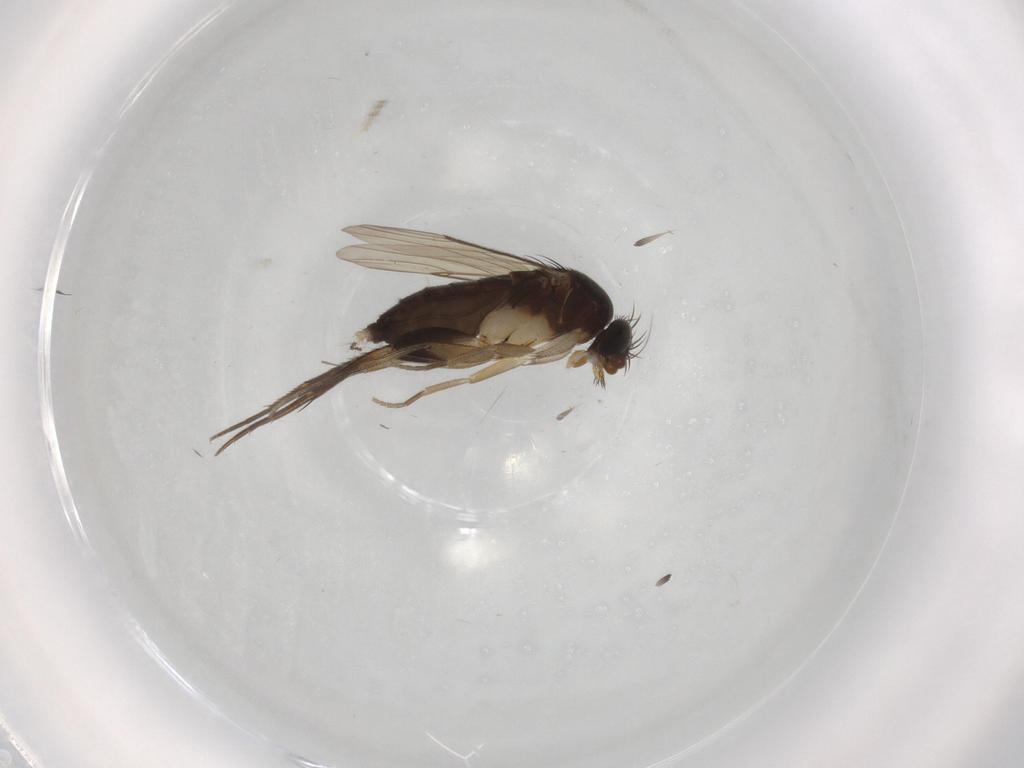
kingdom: Animalia
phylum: Arthropoda
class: Insecta
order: Diptera
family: Phoridae
